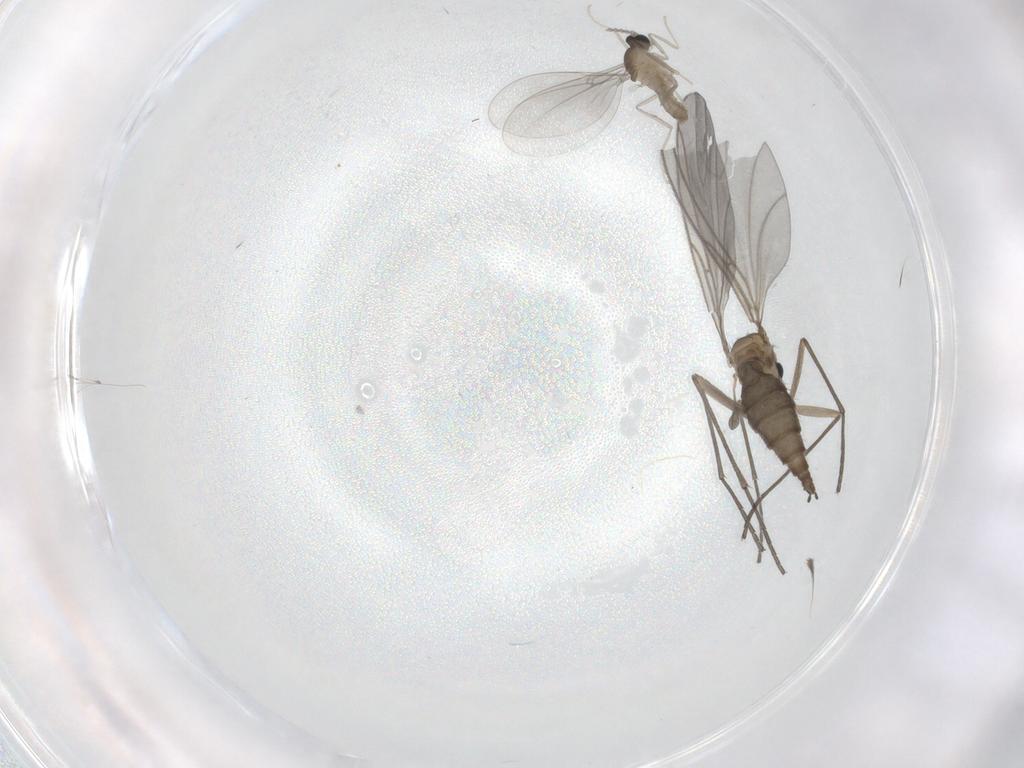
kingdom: Animalia
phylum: Arthropoda
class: Insecta
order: Diptera
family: Sciaridae
